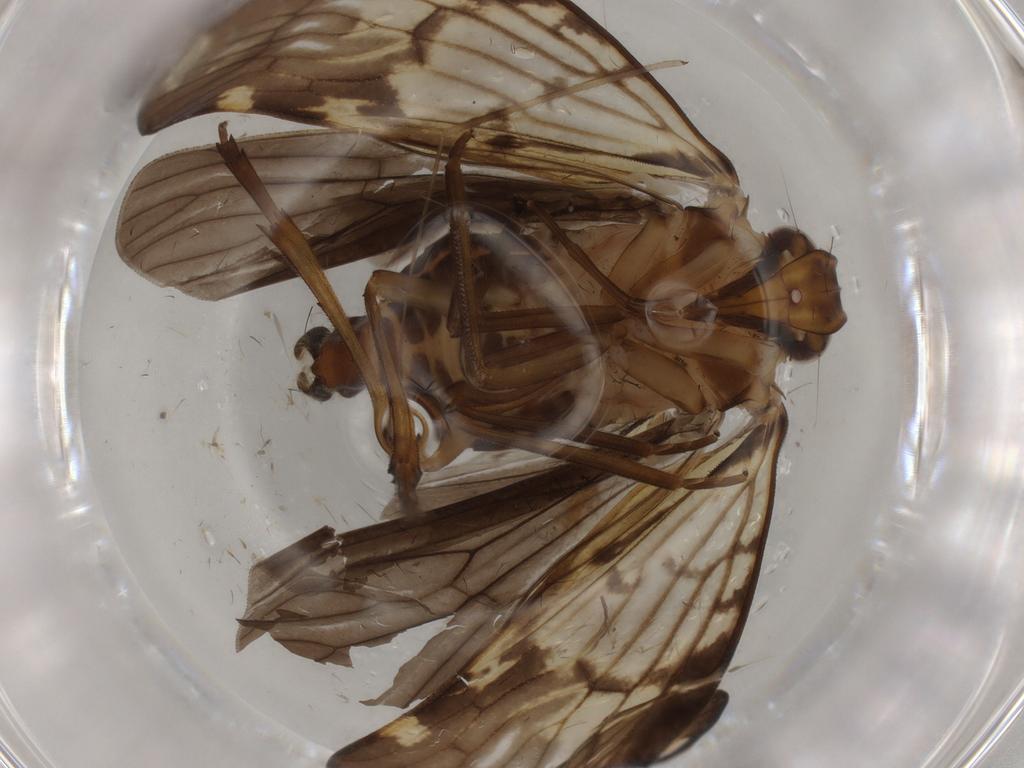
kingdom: Animalia
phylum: Arthropoda
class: Insecta
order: Hemiptera
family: Cixiidae
